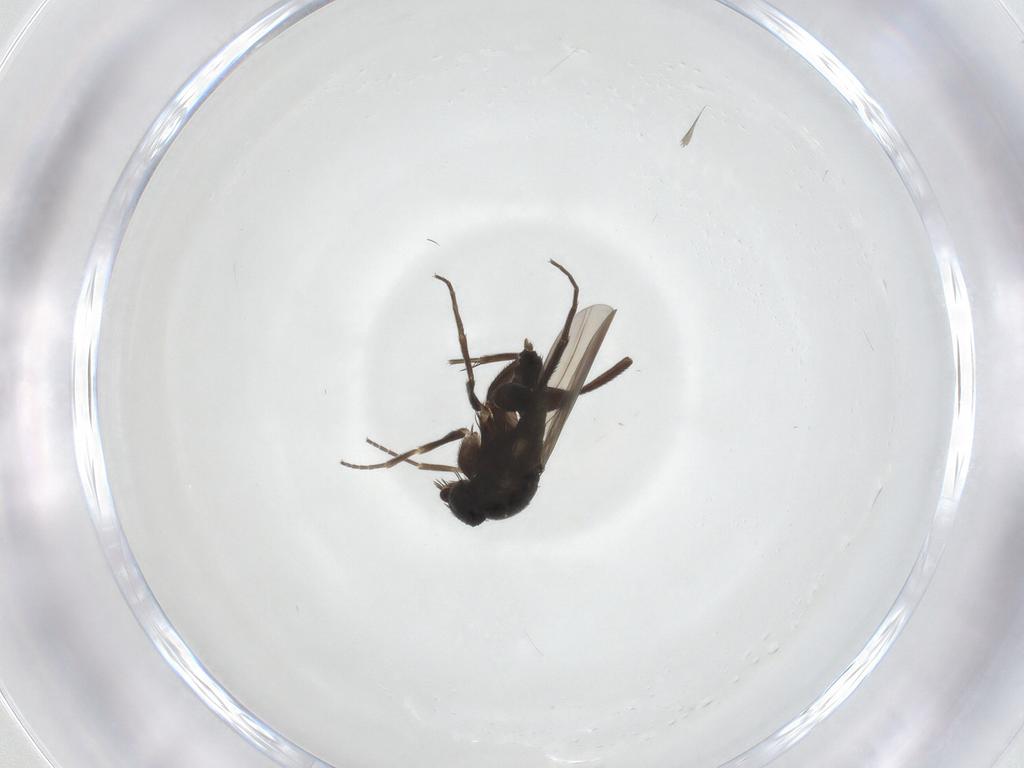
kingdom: Animalia
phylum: Arthropoda
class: Insecta
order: Diptera
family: Phoridae
